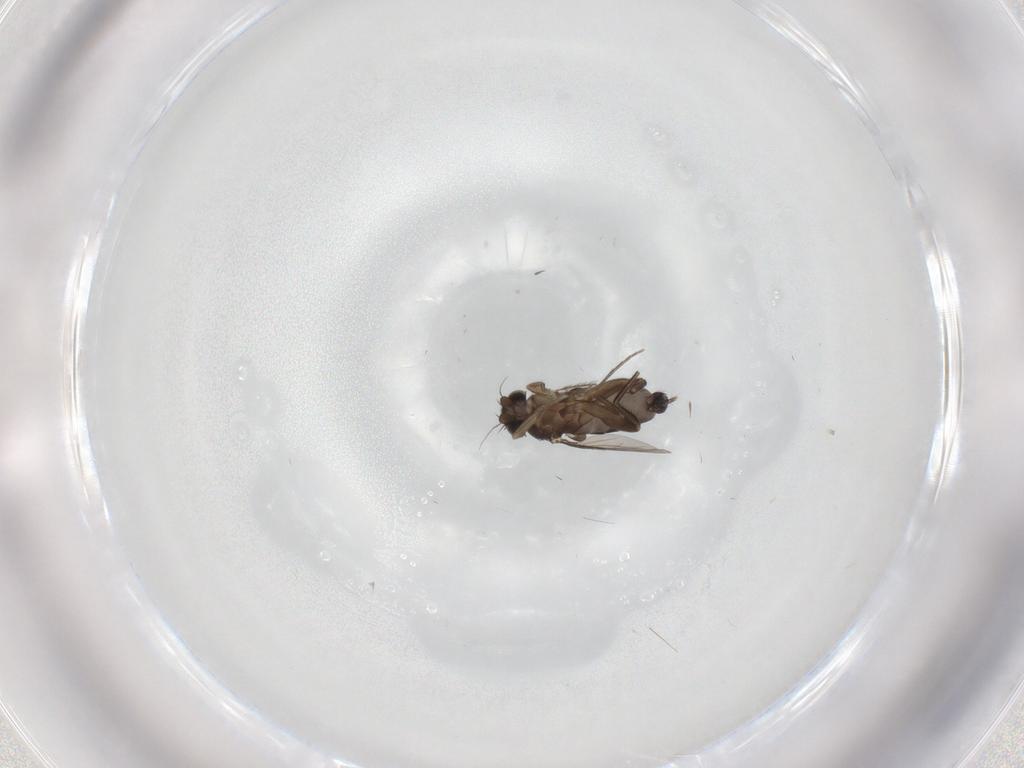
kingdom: Animalia
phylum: Arthropoda
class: Insecta
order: Diptera
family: Phoridae
